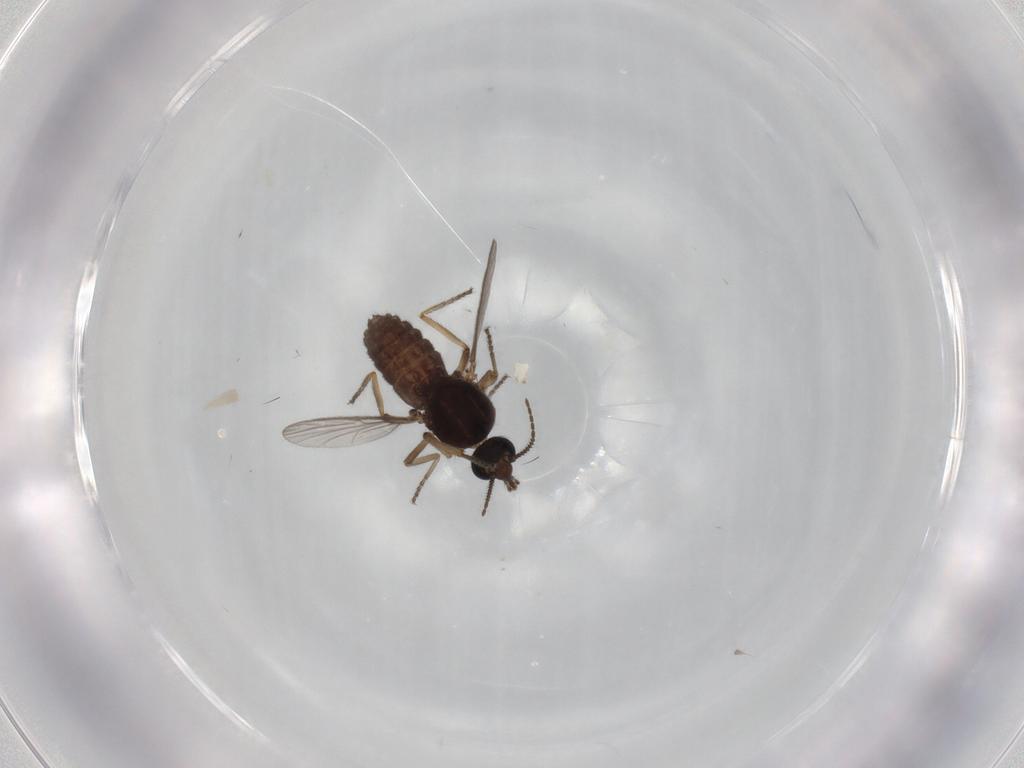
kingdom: Animalia
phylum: Arthropoda
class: Insecta
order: Diptera
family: Ceratopogonidae
